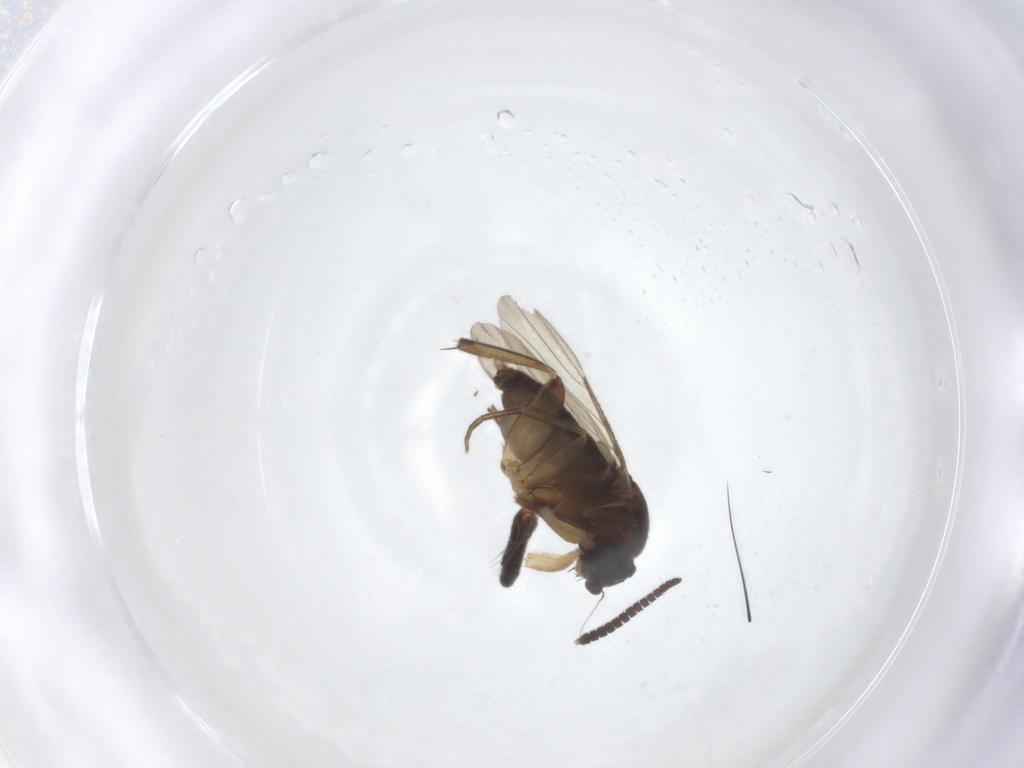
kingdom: Animalia
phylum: Arthropoda
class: Insecta
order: Diptera
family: Phoridae
